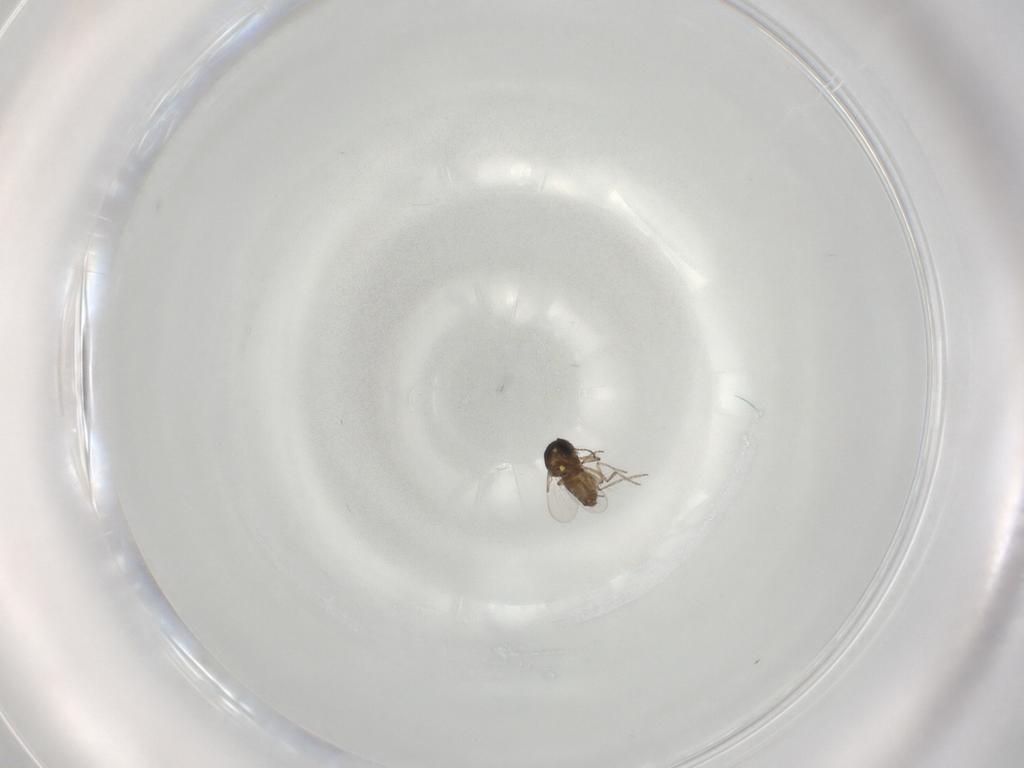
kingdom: Animalia
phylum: Arthropoda
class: Insecta
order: Diptera
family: Ceratopogonidae
